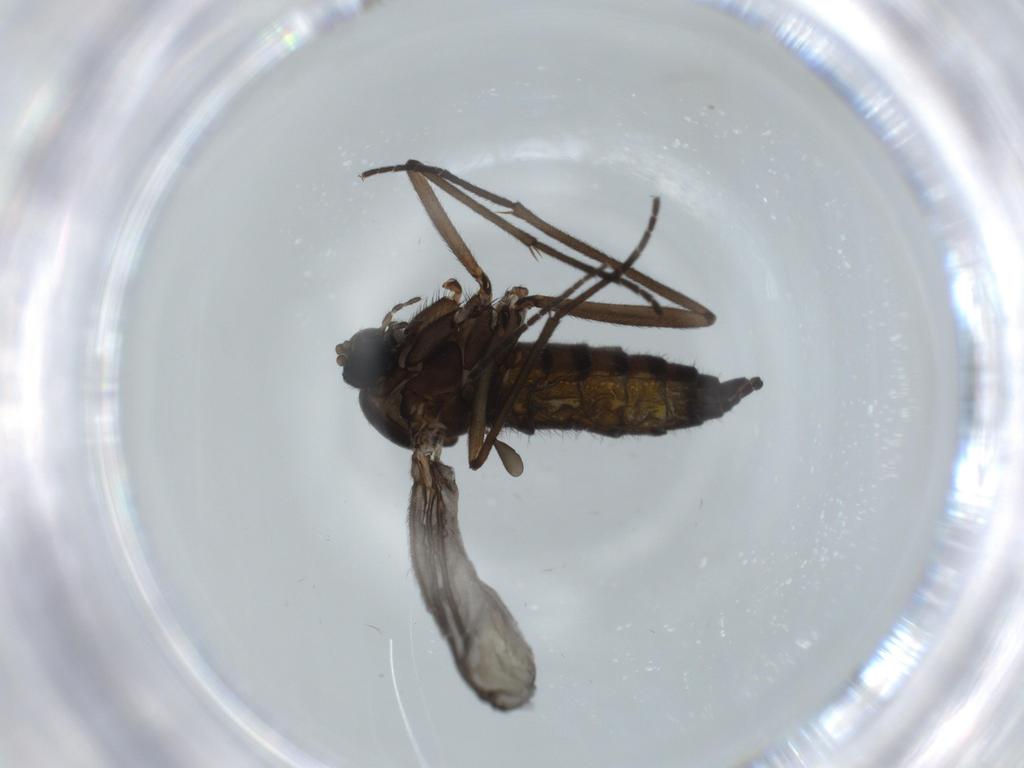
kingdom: Animalia
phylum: Arthropoda
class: Insecta
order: Diptera
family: Sciaridae
